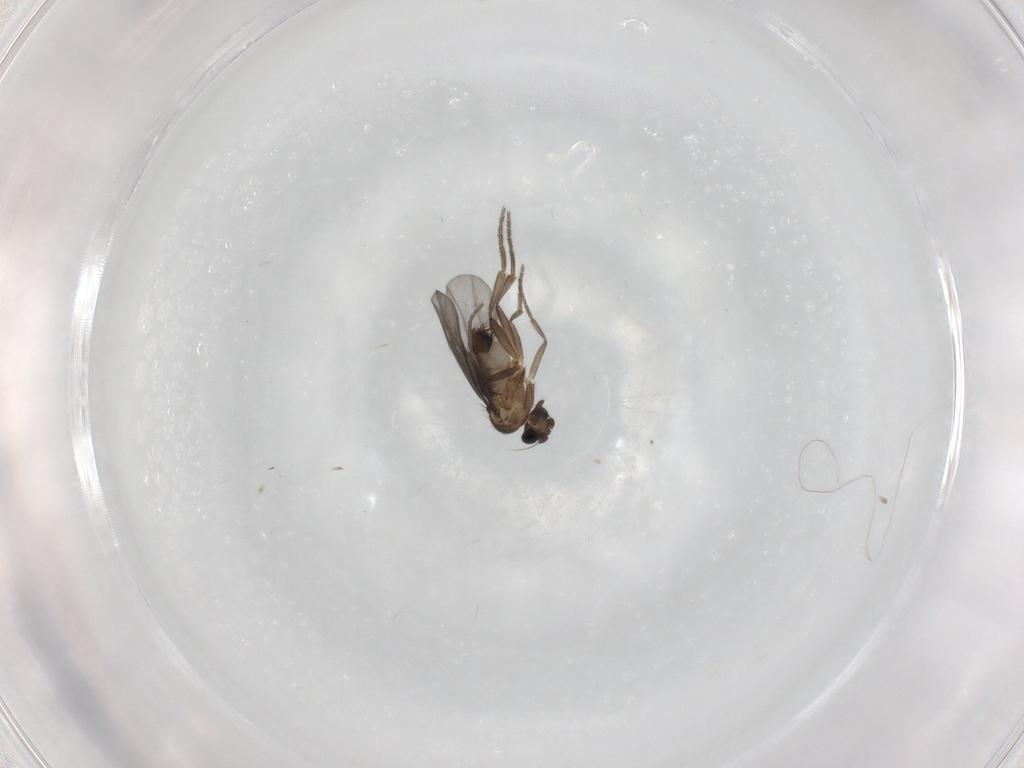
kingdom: Animalia
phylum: Arthropoda
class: Insecta
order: Diptera
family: Phoridae
